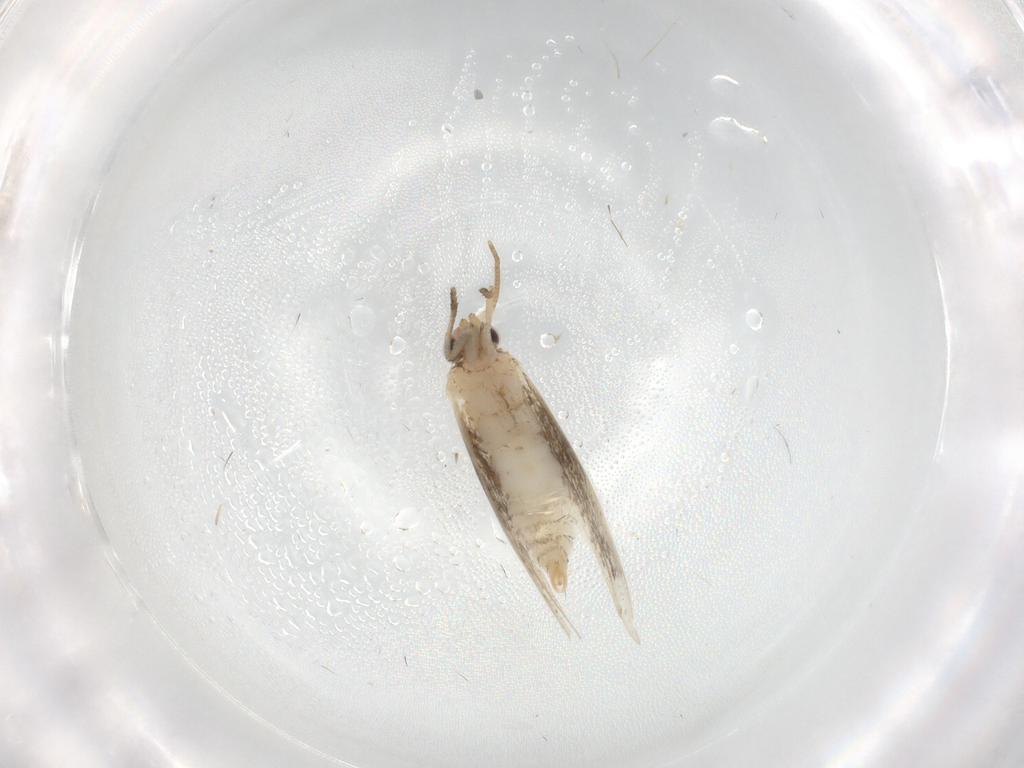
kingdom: Animalia
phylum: Arthropoda
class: Insecta
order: Lepidoptera
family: Tineidae
